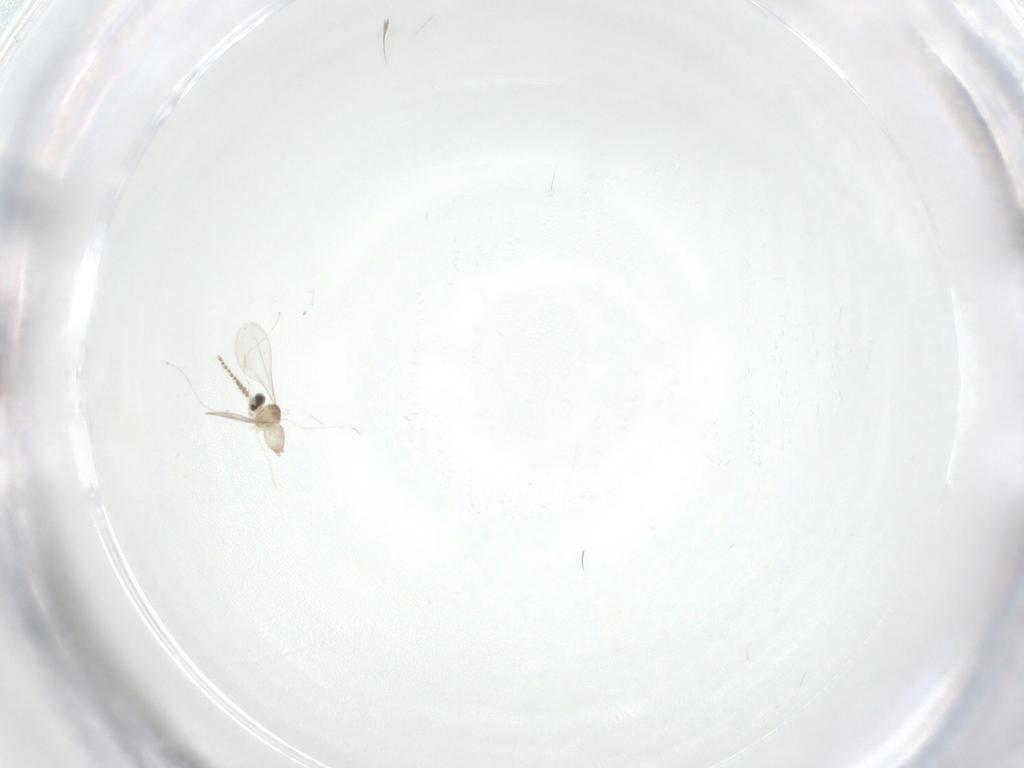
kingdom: Animalia
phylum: Arthropoda
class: Insecta
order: Diptera
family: Cecidomyiidae
